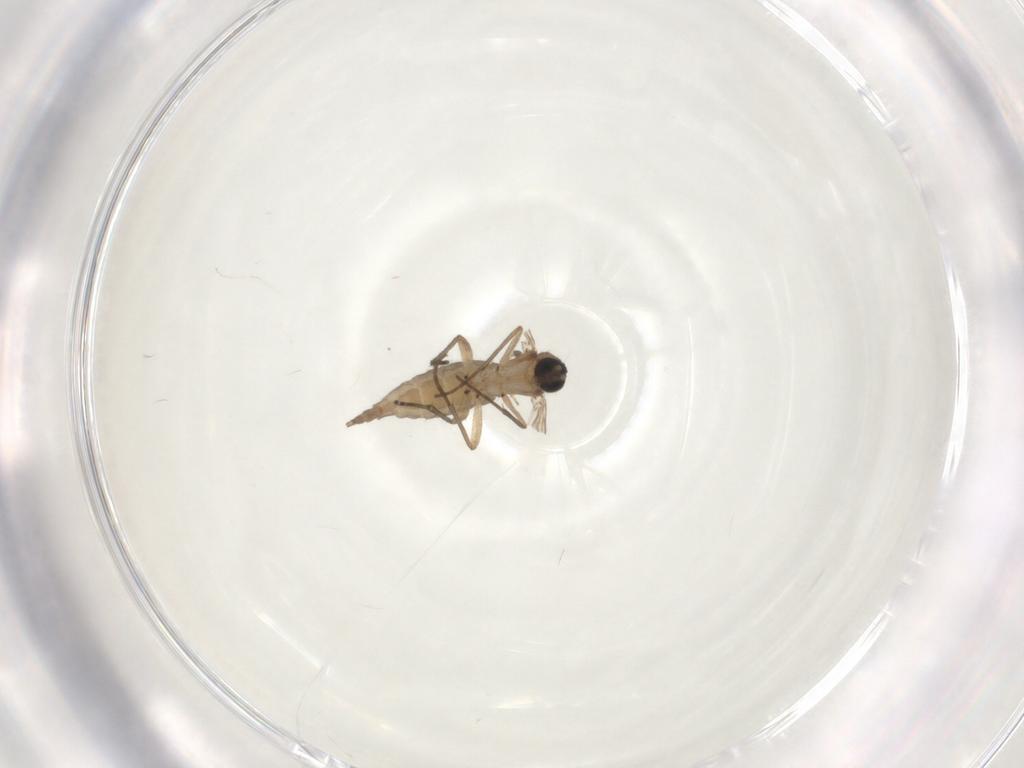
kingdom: Animalia
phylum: Arthropoda
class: Insecta
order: Diptera
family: Sciaridae
